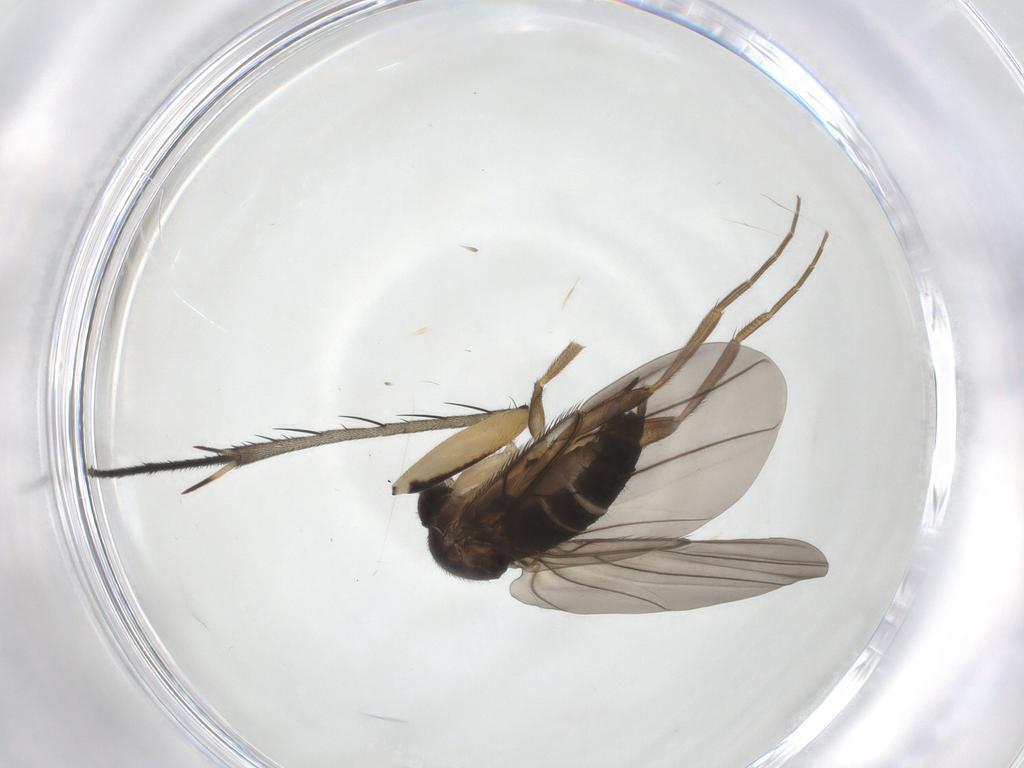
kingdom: Animalia
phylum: Arthropoda
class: Insecta
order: Diptera
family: Phoridae
